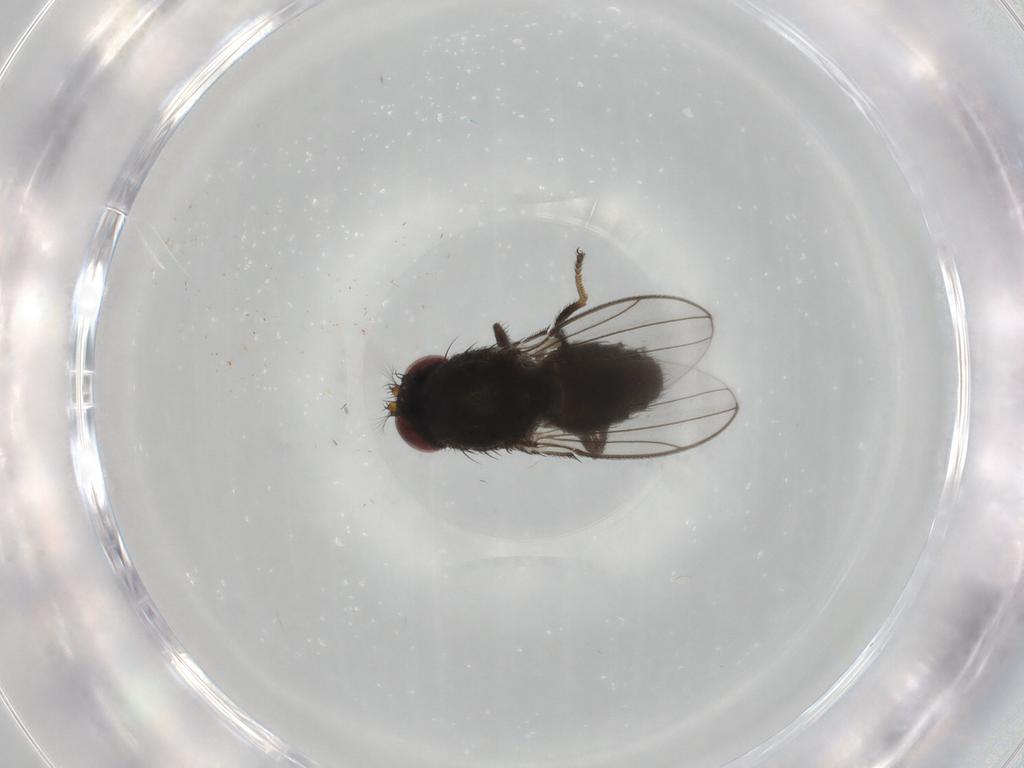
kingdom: Animalia
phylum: Arthropoda
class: Insecta
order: Diptera
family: Ephydridae
